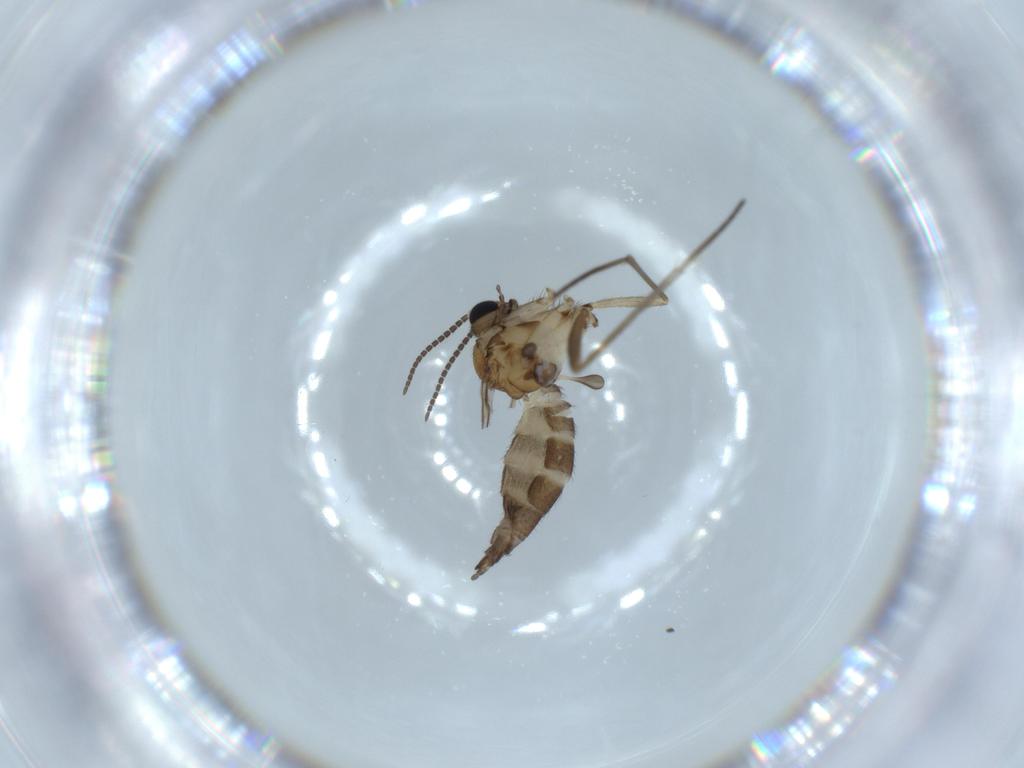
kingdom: Animalia
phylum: Arthropoda
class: Insecta
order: Diptera
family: Sciaridae
